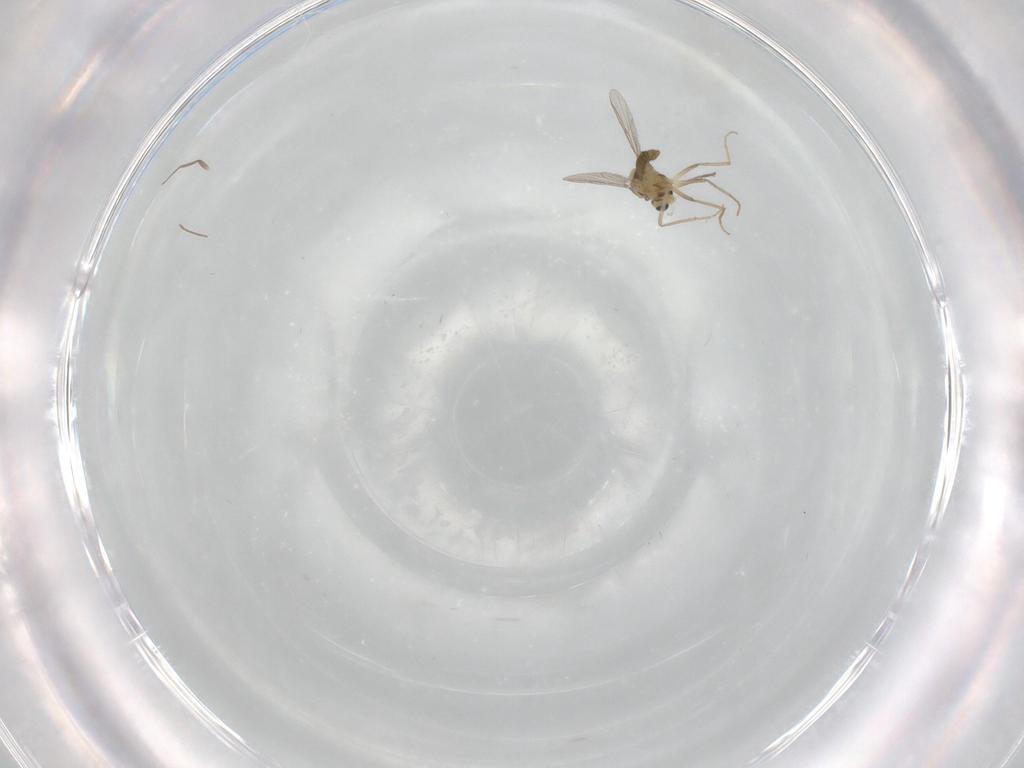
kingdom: Animalia
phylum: Arthropoda
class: Insecta
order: Diptera
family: Chironomidae
